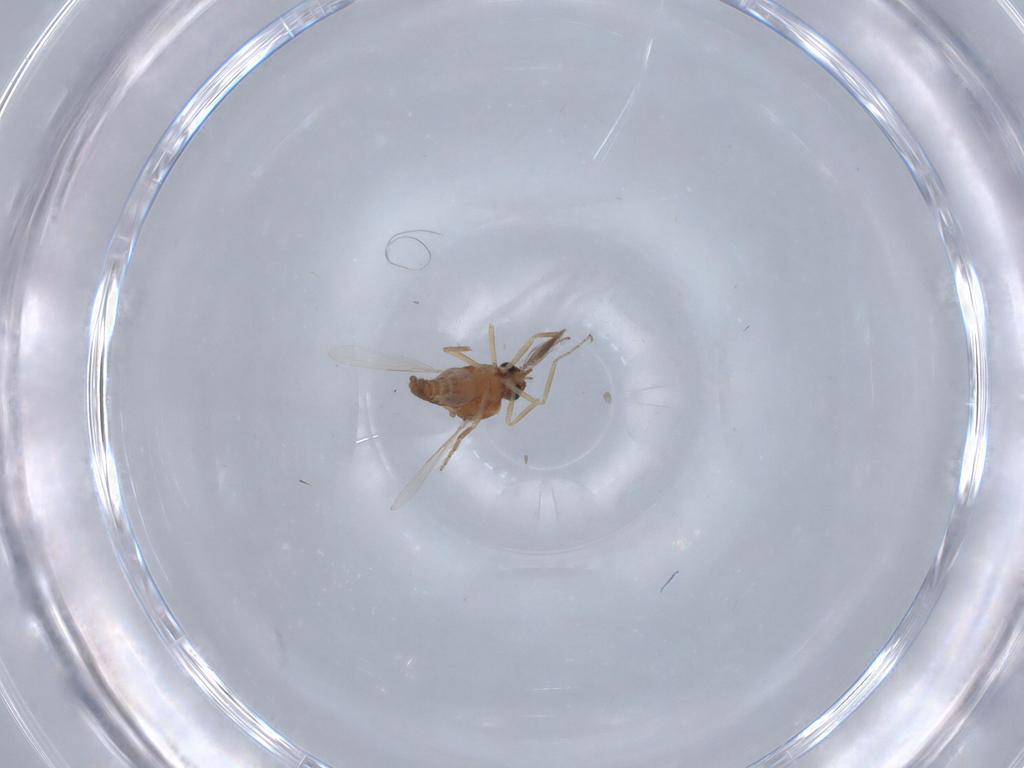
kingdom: Animalia
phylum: Arthropoda
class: Insecta
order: Diptera
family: Ceratopogonidae
